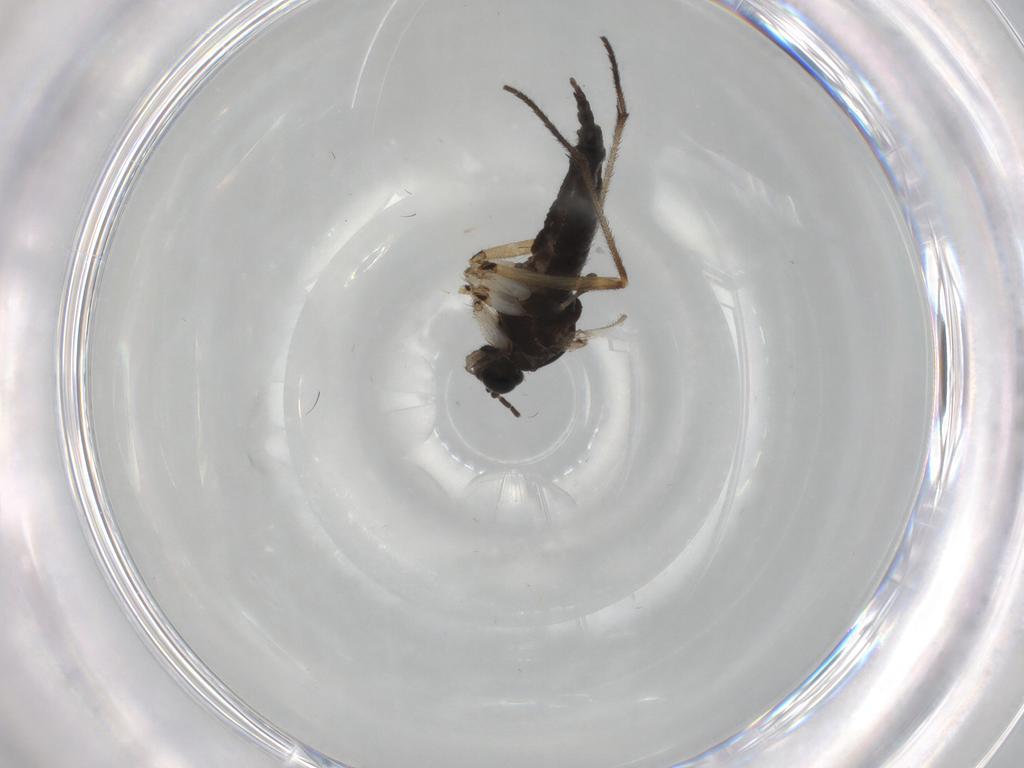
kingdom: Animalia
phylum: Arthropoda
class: Insecta
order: Diptera
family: Sciaridae
